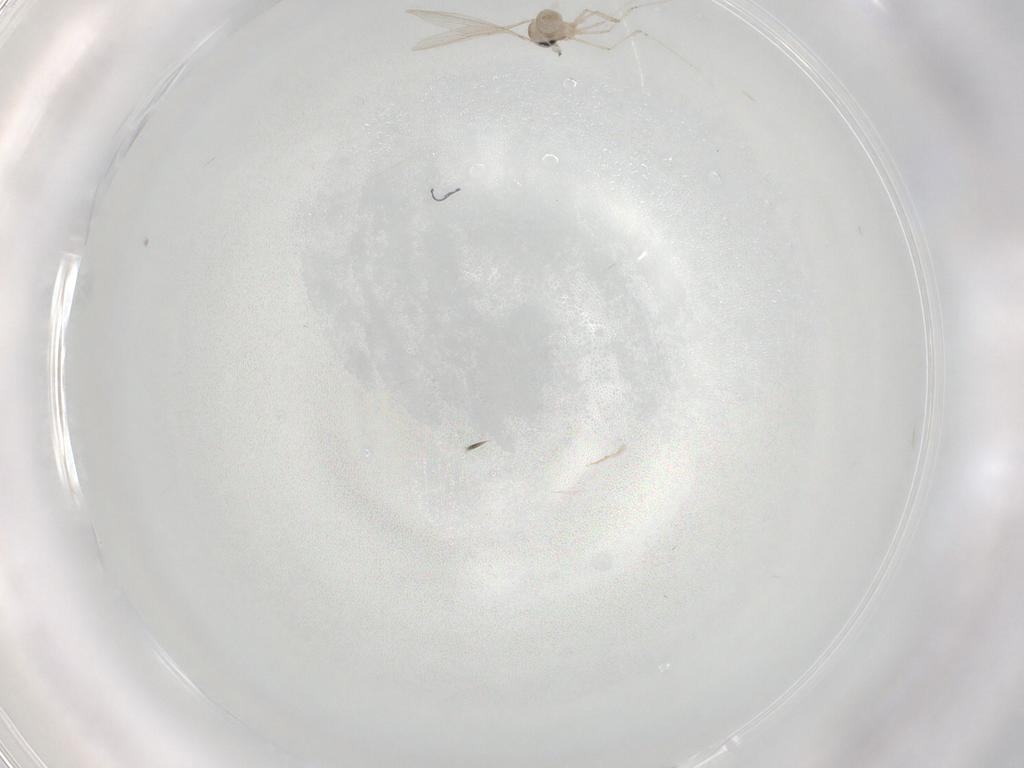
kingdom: Animalia
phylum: Arthropoda
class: Insecta
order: Diptera
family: Cecidomyiidae
